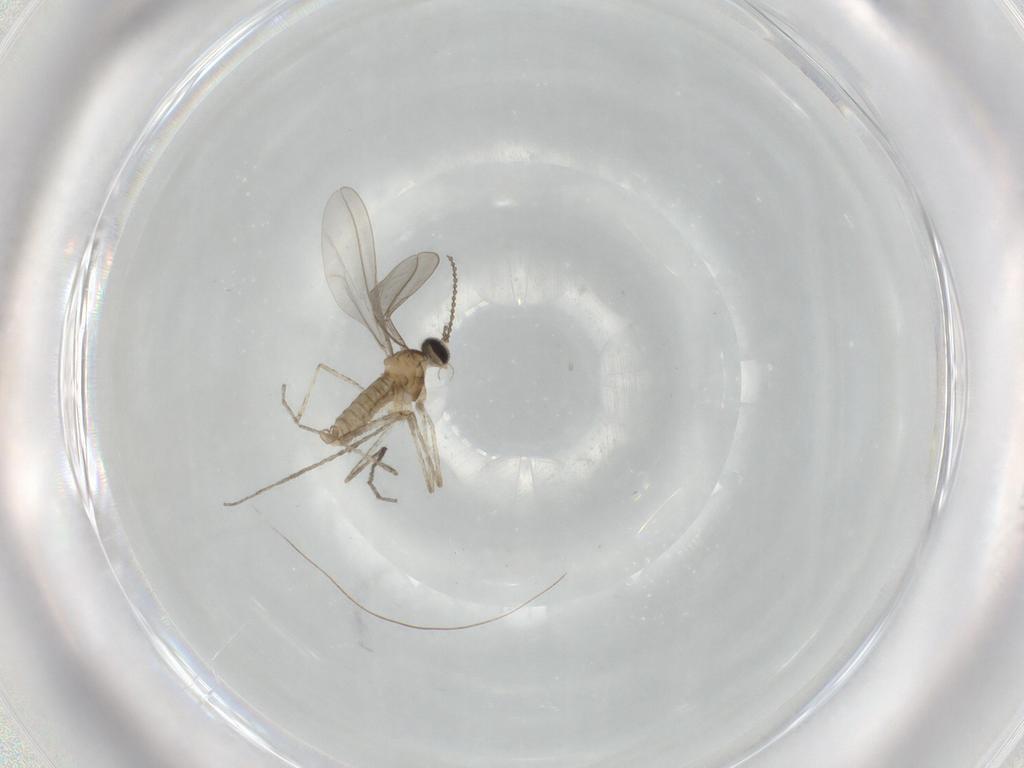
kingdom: Animalia
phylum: Arthropoda
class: Insecta
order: Diptera
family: Cecidomyiidae
